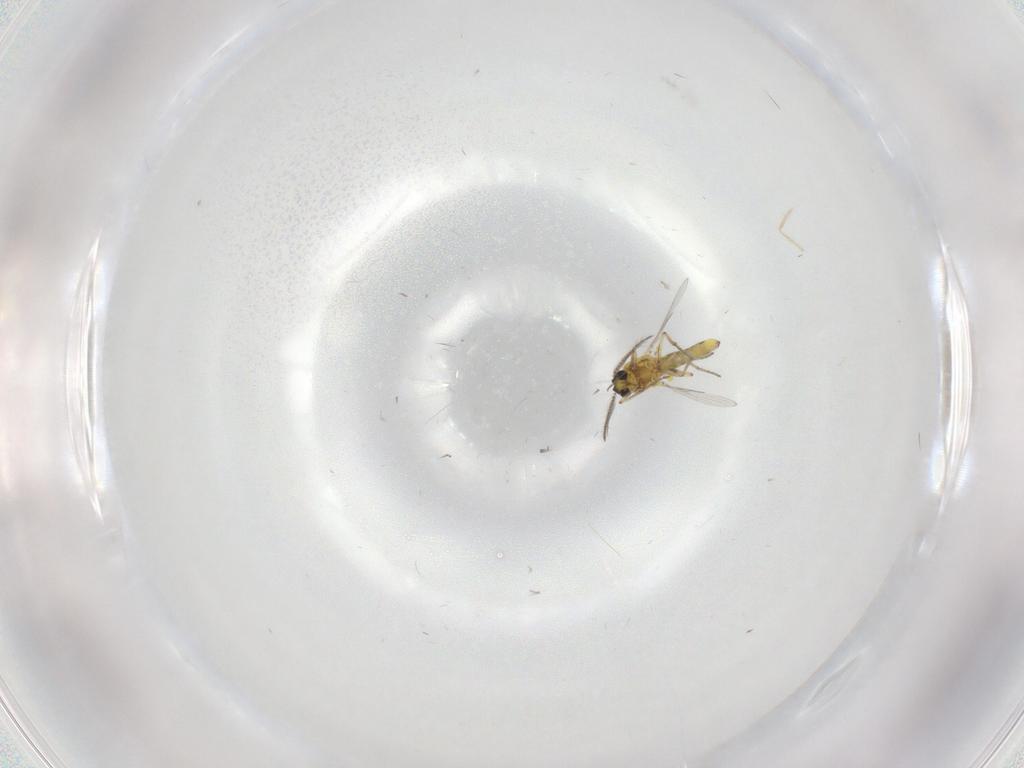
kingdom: Animalia
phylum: Arthropoda
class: Insecta
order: Diptera
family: Ceratopogonidae
